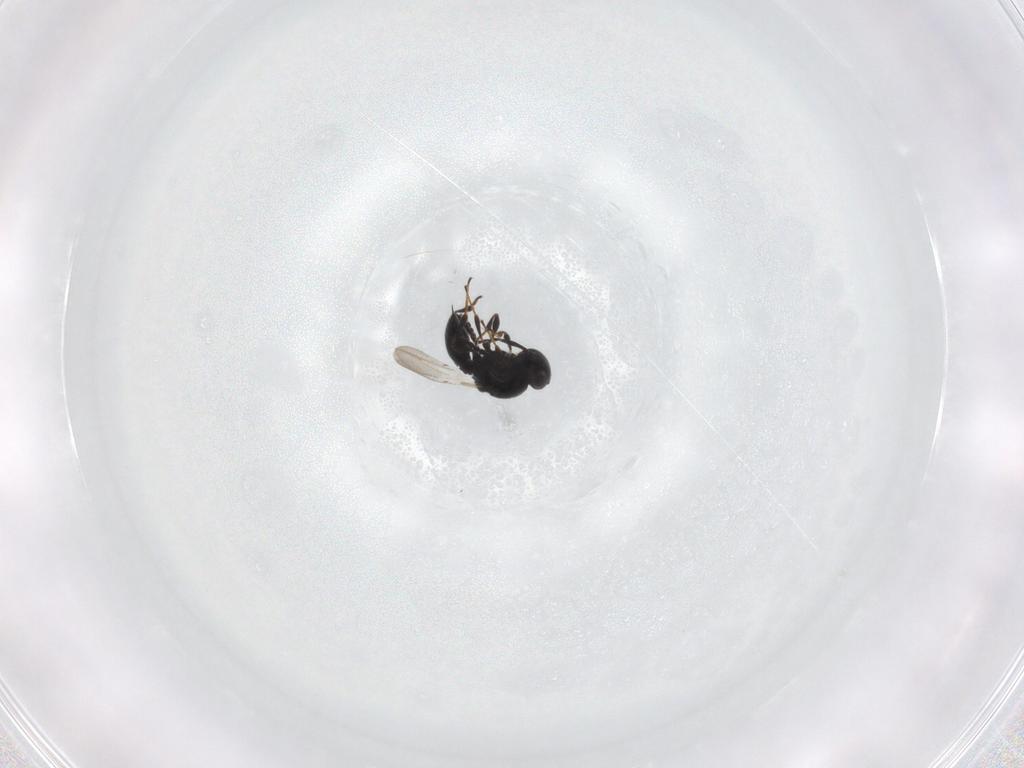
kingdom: Animalia
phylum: Arthropoda
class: Insecta
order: Hymenoptera
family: Platygastridae
